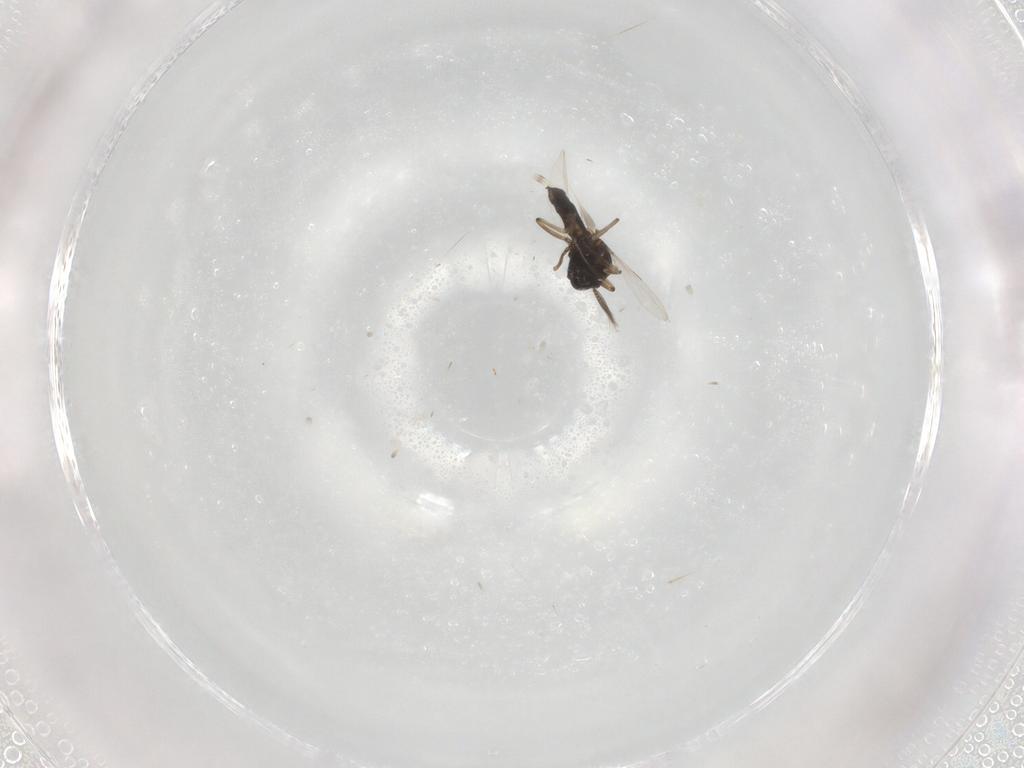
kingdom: Animalia
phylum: Arthropoda
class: Insecta
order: Diptera
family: Ceratopogonidae
